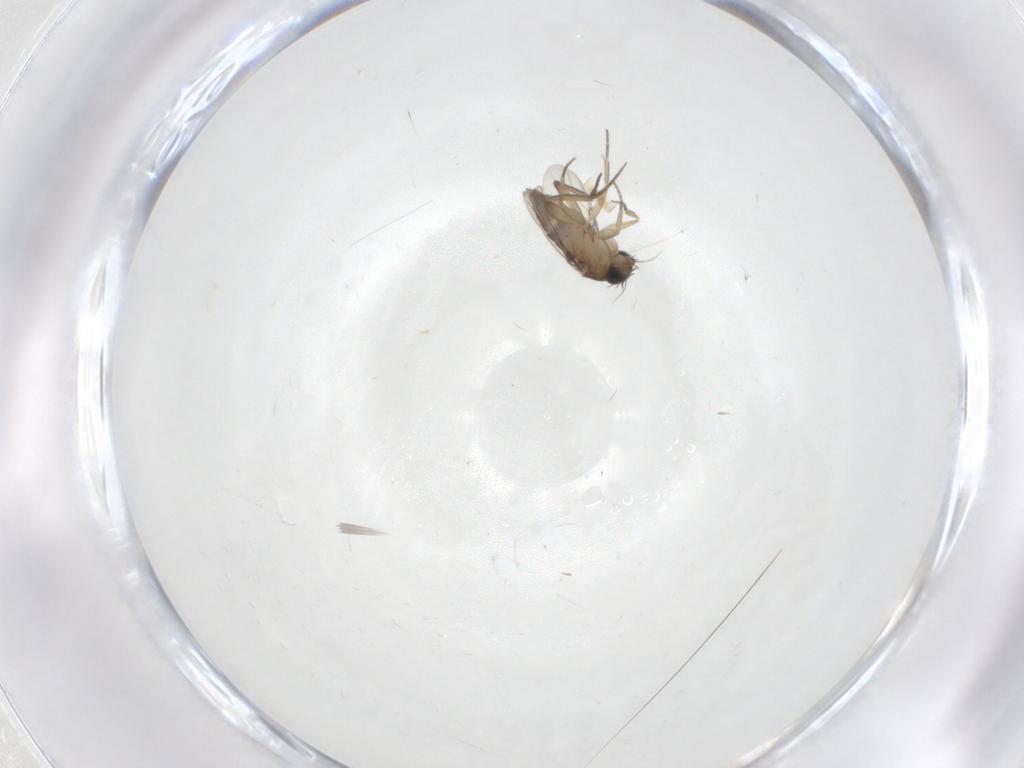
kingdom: Animalia
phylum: Arthropoda
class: Insecta
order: Diptera
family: Phoridae
